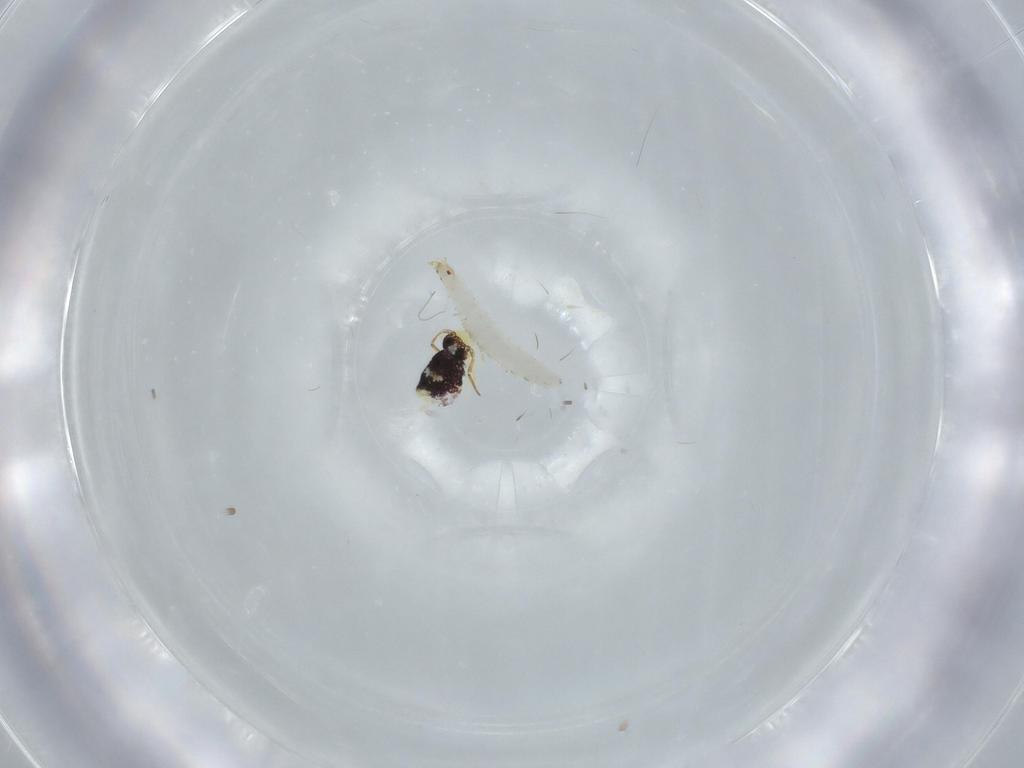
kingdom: Animalia
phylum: Arthropoda
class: Collembola
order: Symphypleona
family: Bourletiellidae
